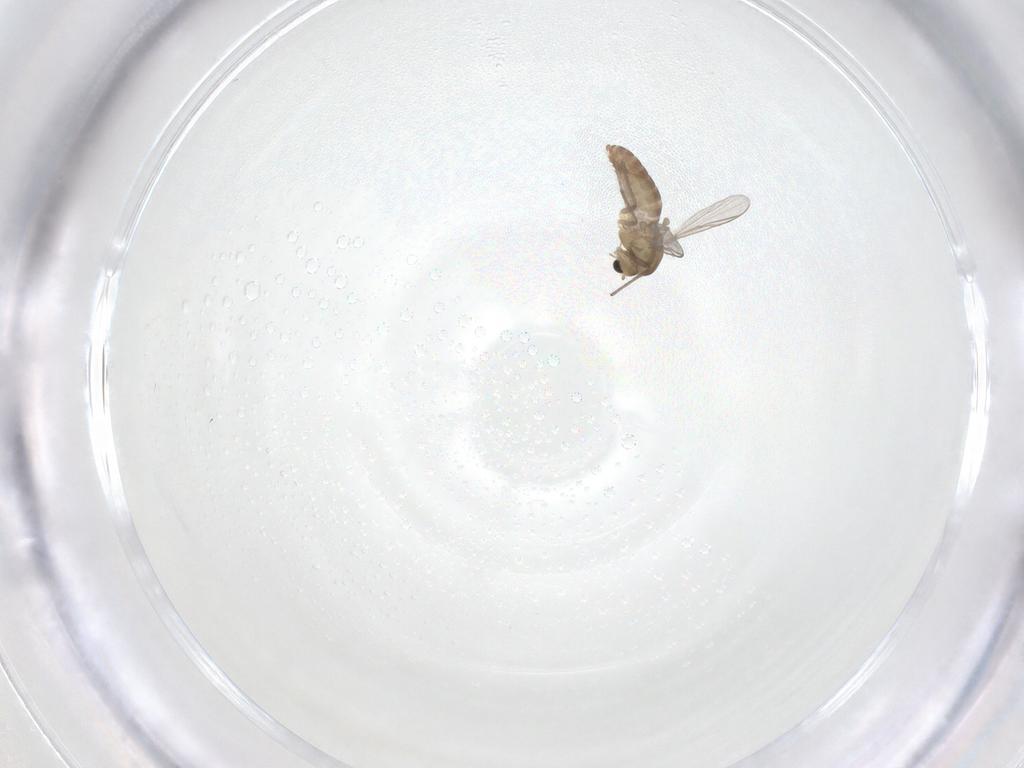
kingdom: Animalia
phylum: Arthropoda
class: Insecta
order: Diptera
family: Chironomidae
